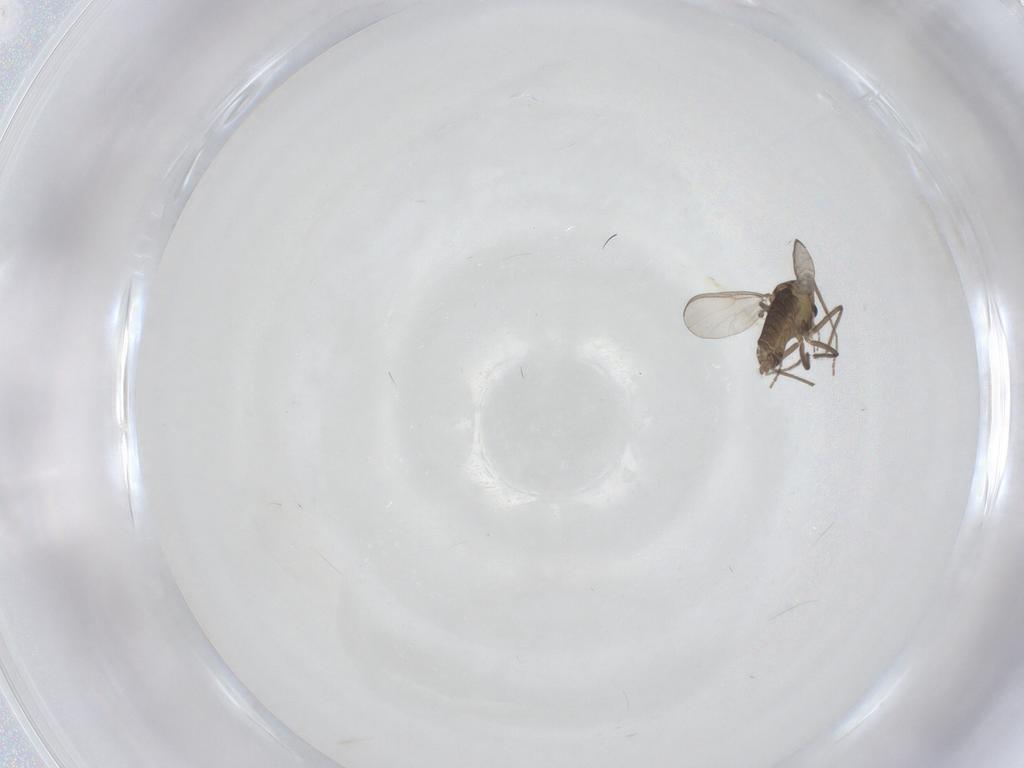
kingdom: Animalia
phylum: Arthropoda
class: Insecta
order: Diptera
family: Chironomidae
